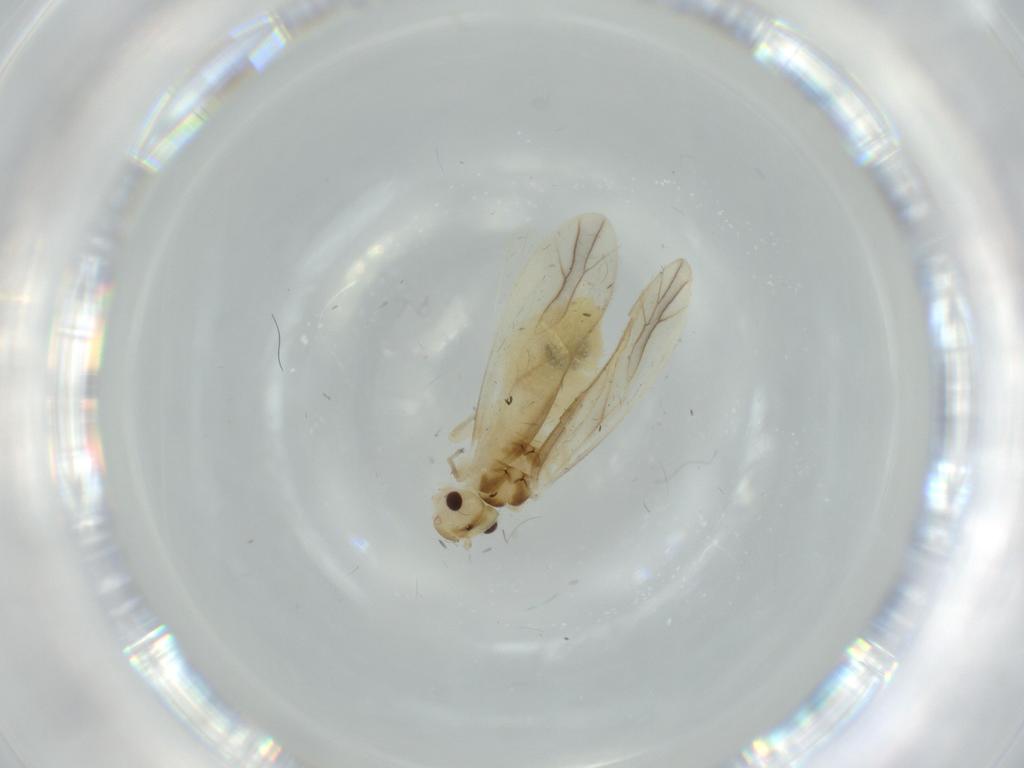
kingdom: Animalia
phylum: Arthropoda
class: Insecta
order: Psocodea
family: Caeciliusidae
